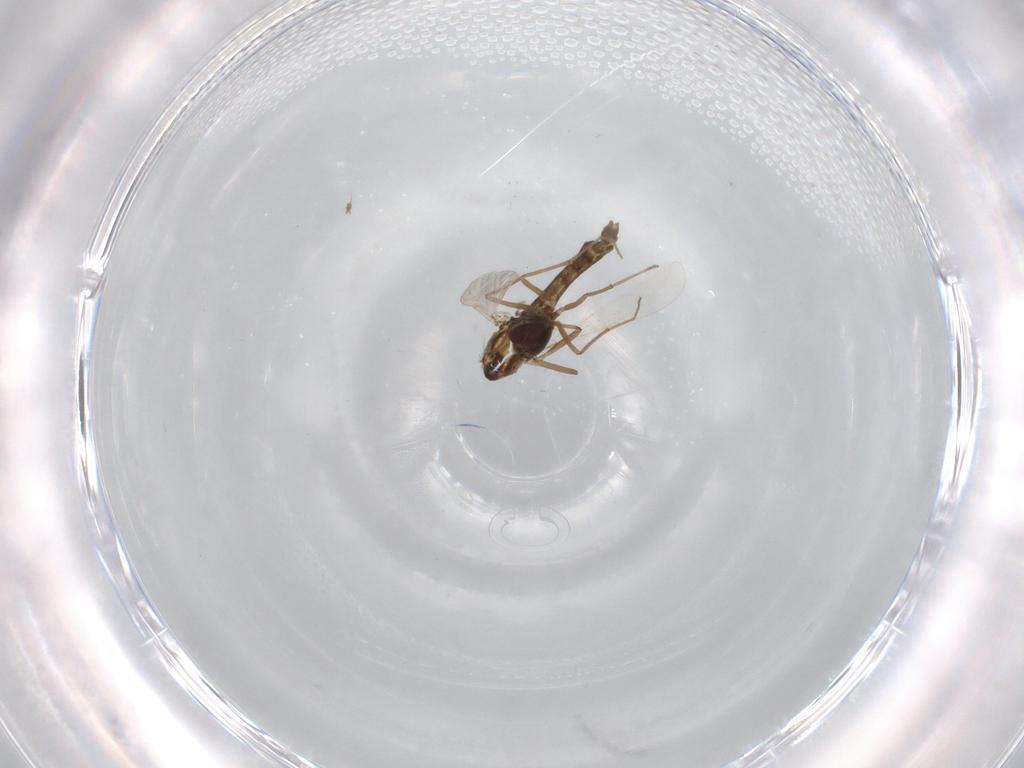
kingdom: Animalia
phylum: Arthropoda
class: Insecta
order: Diptera
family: Chironomidae
